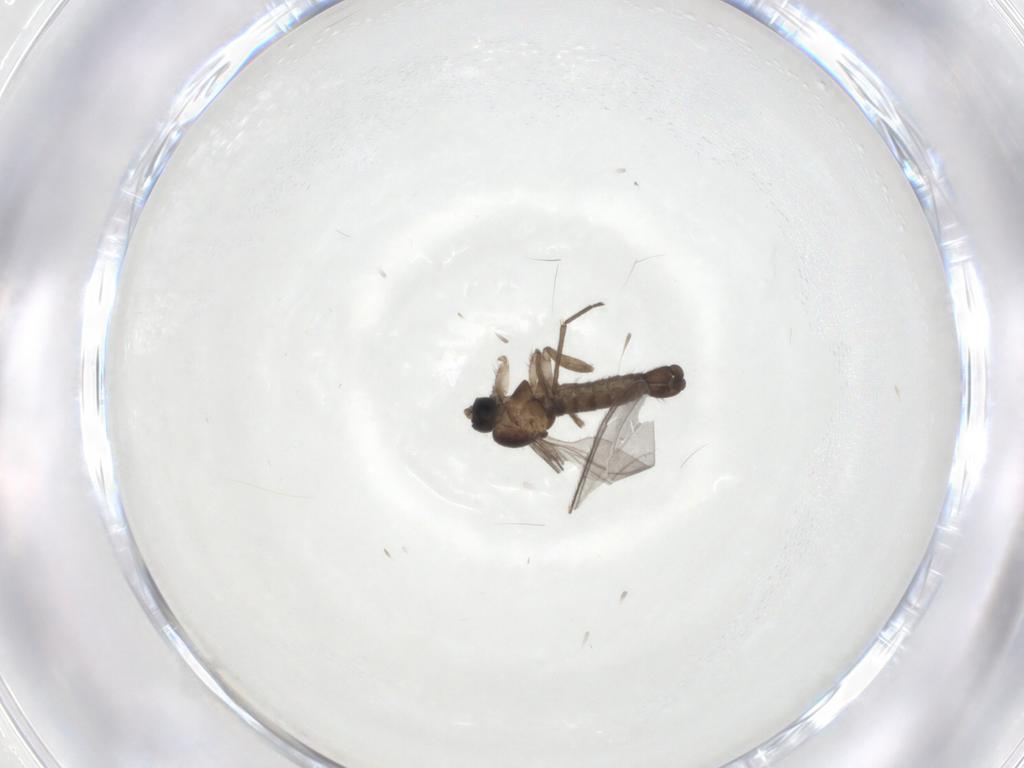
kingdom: Animalia
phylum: Arthropoda
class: Insecta
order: Diptera
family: Sciaridae
